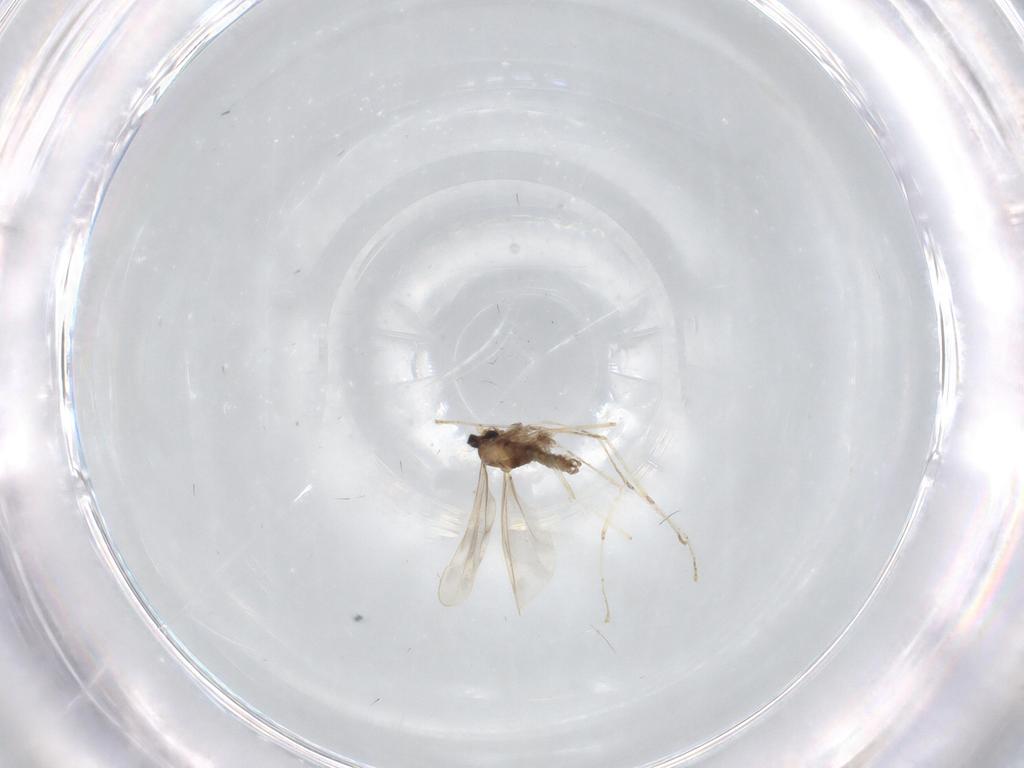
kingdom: Animalia
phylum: Arthropoda
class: Insecta
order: Diptera
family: Cecidomyiidae
